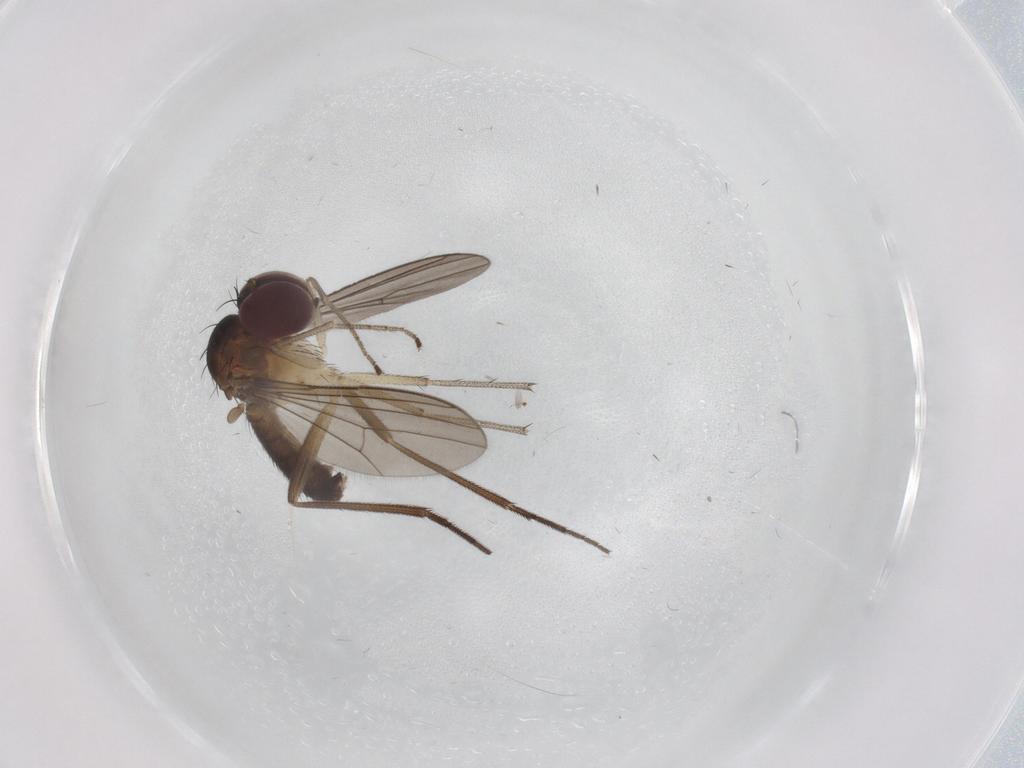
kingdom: Animalia
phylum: Arthropoda
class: Insecta
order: Diptera
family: Dolichopodidae
